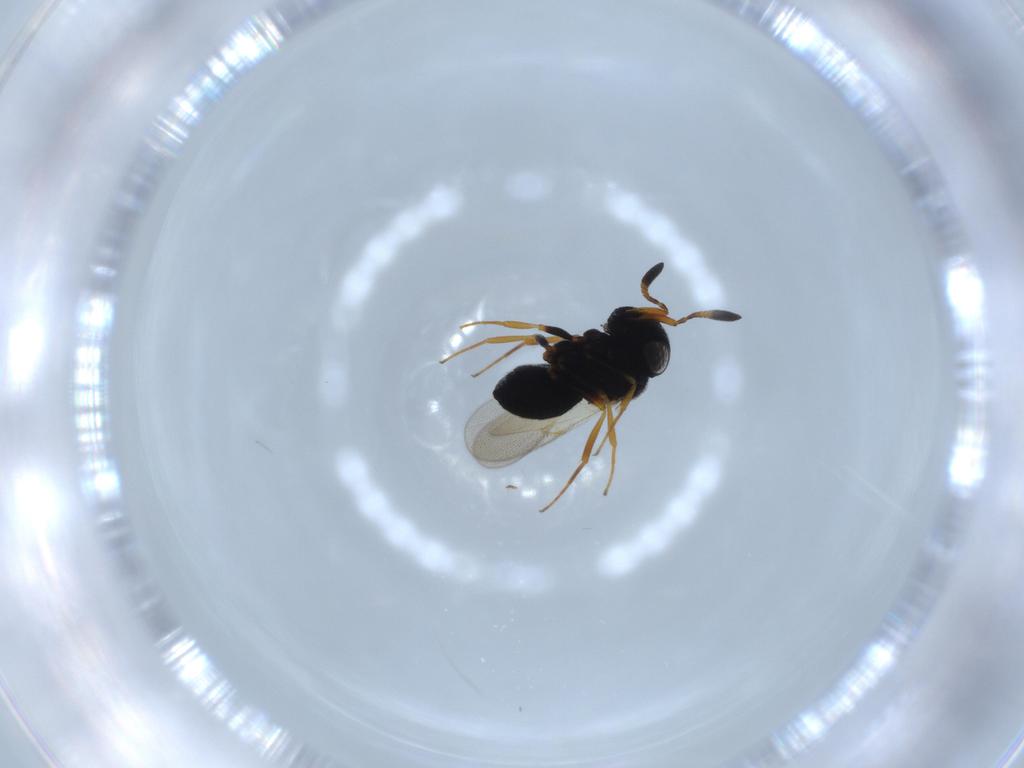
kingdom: Animalia
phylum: Arthropoda
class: Insecta
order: Hymenoptera
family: Scelionidae
